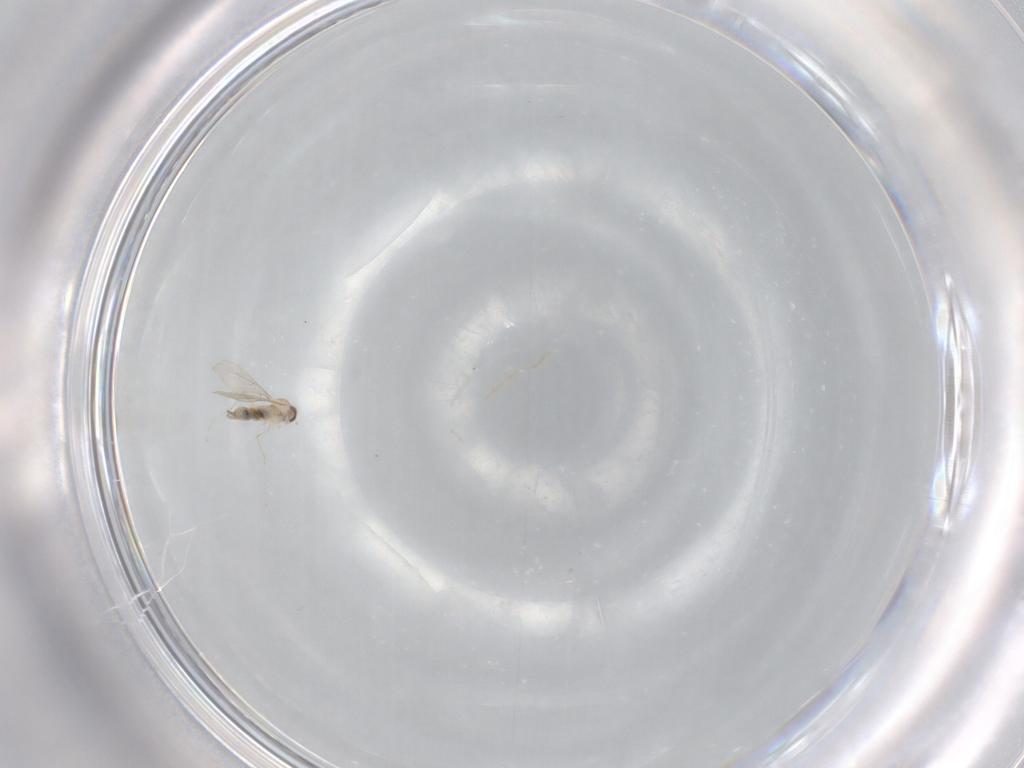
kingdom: Animalia
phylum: Arthropoda
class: Insecta
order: Diptera
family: Cecidomyiidae
